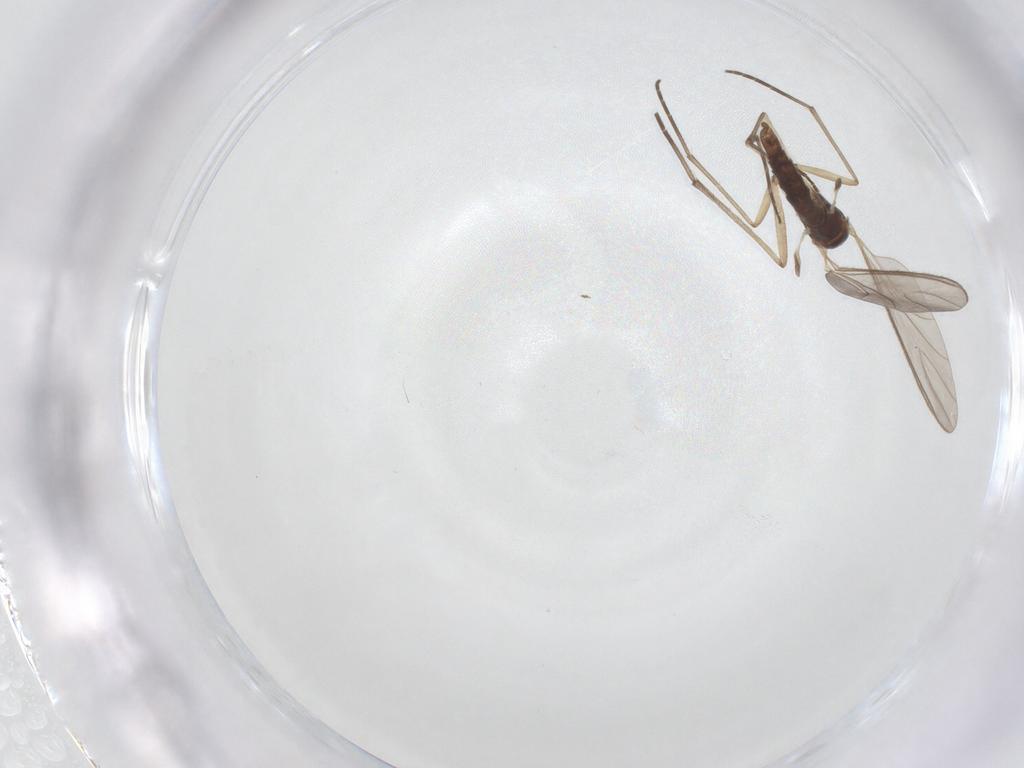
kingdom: Animalia
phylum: Arthropoda
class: Insecta
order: Diptera
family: Sciaridae
